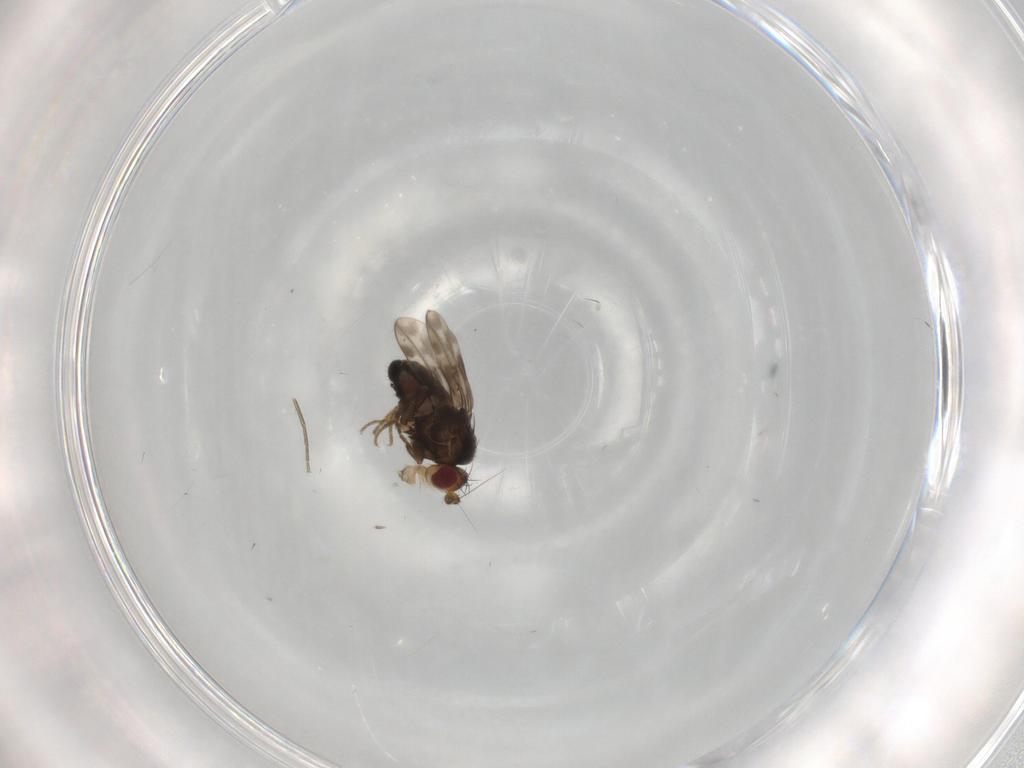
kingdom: Animalia
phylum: Arthropoda
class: Insecta
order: Diptera
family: Sphaeroceridae
